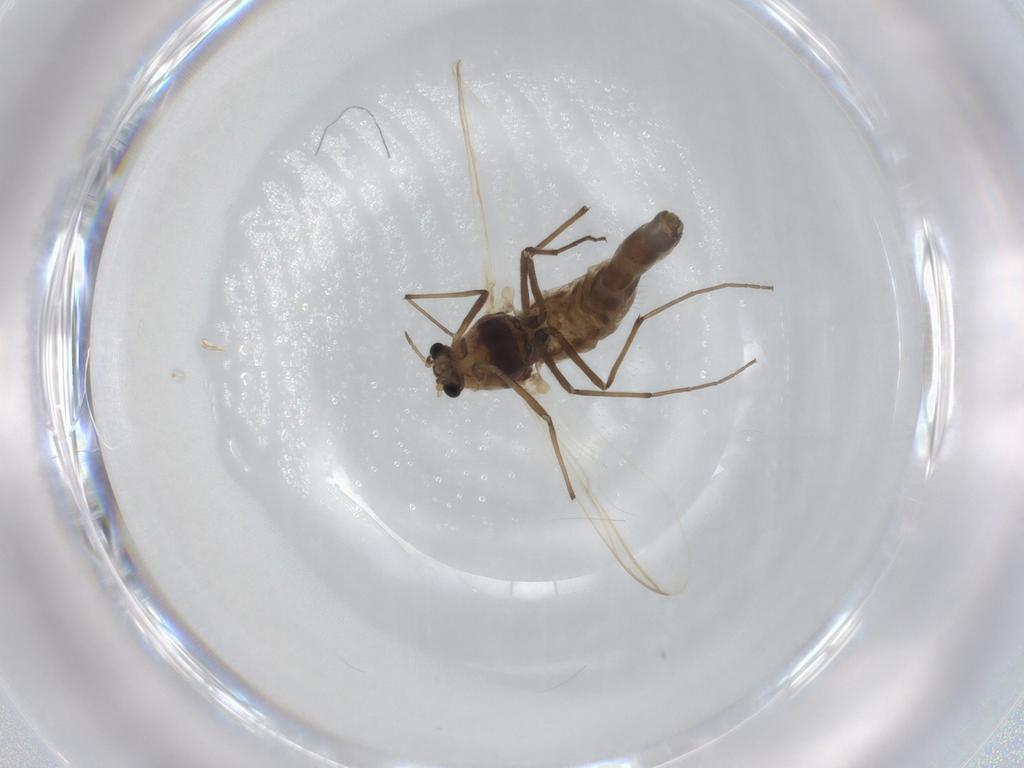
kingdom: Animalia
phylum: Arthropoda
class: Insecta
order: Diptera
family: Chironomidae
